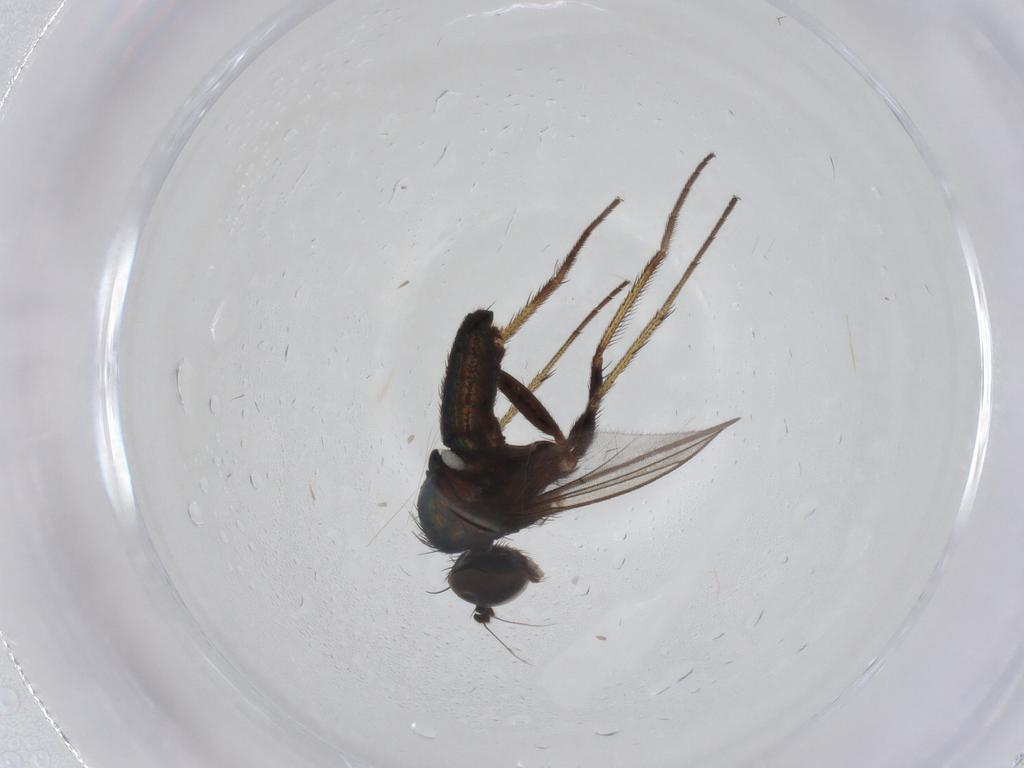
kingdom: Animalia
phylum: Arthropoda
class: Insecta
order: Diptera
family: Dolichopodidae
